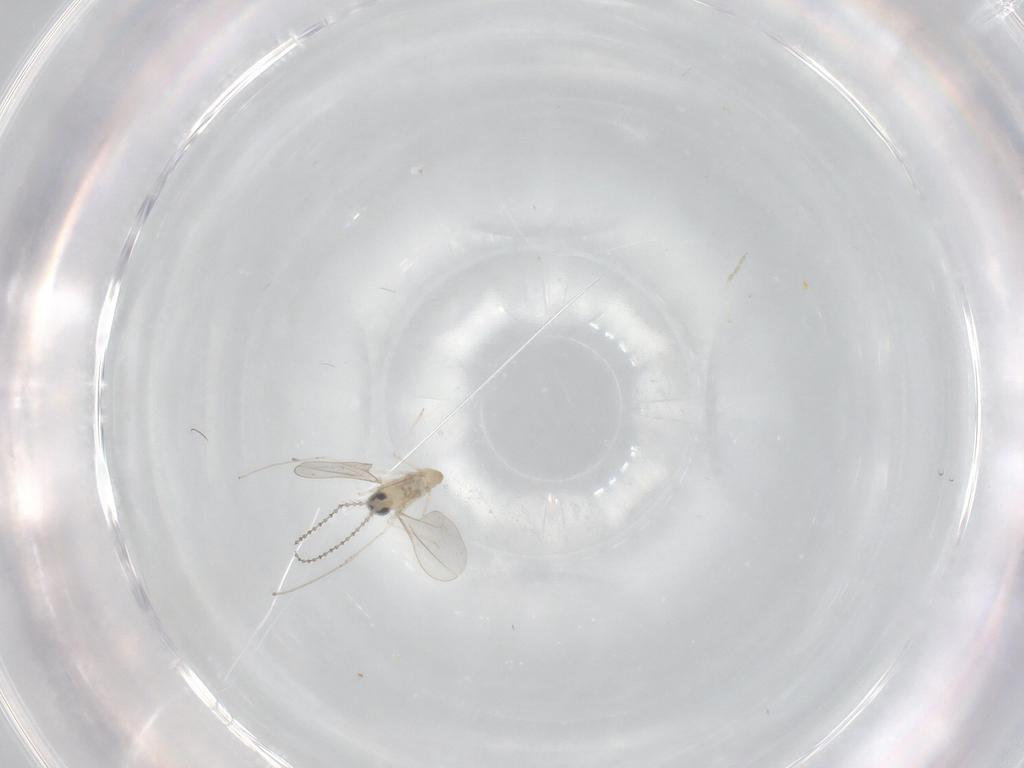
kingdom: Animalia
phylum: Arthropoda
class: Insecta
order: Diptera
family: Cecidomyiidae
